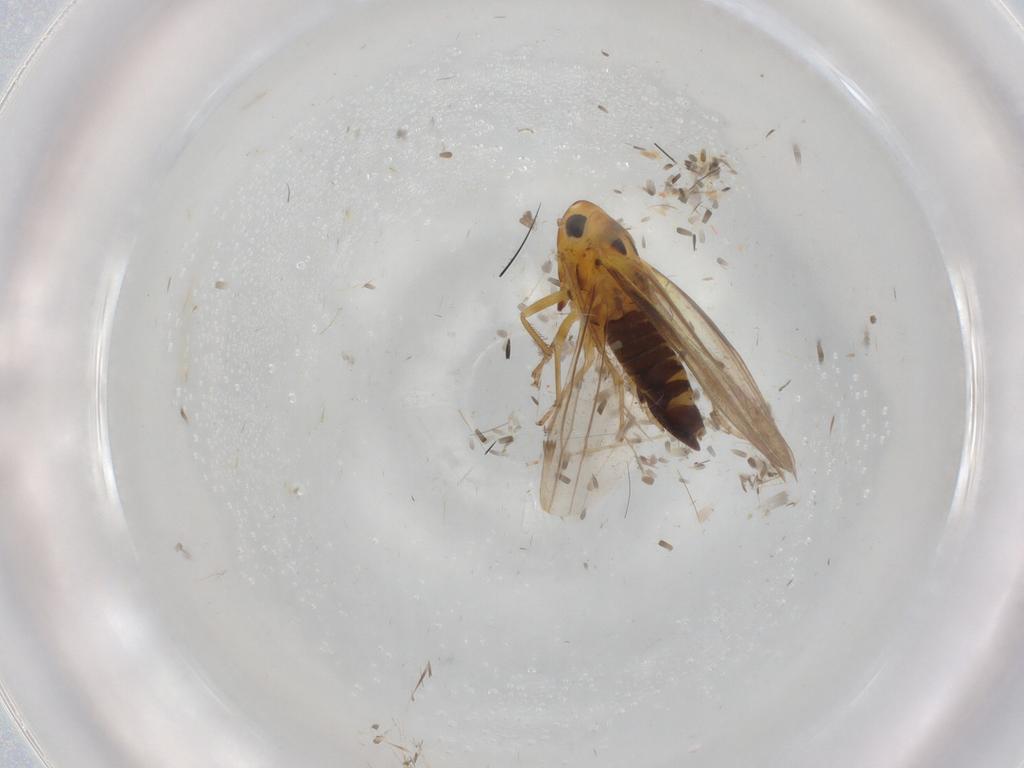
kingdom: Animalia
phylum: Arthropoda
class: Insecta
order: Hemiptera
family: Cicadellidae
